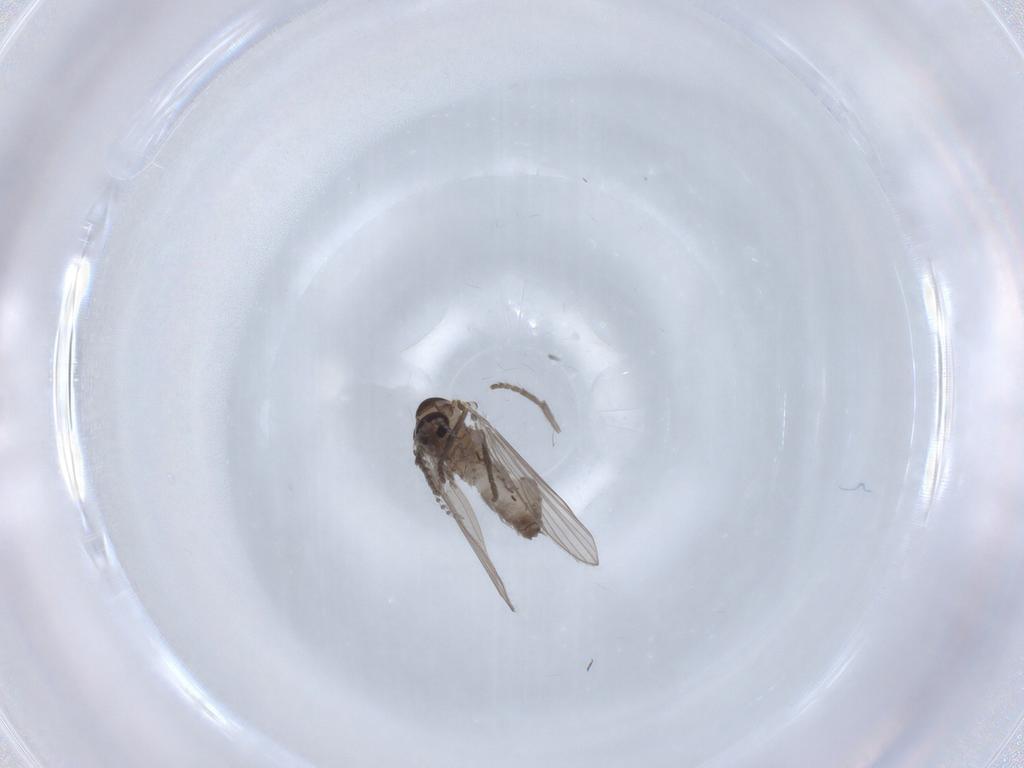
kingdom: Animalia
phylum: Arthropoda
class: Insecta
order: Diptera
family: Psychodidae
